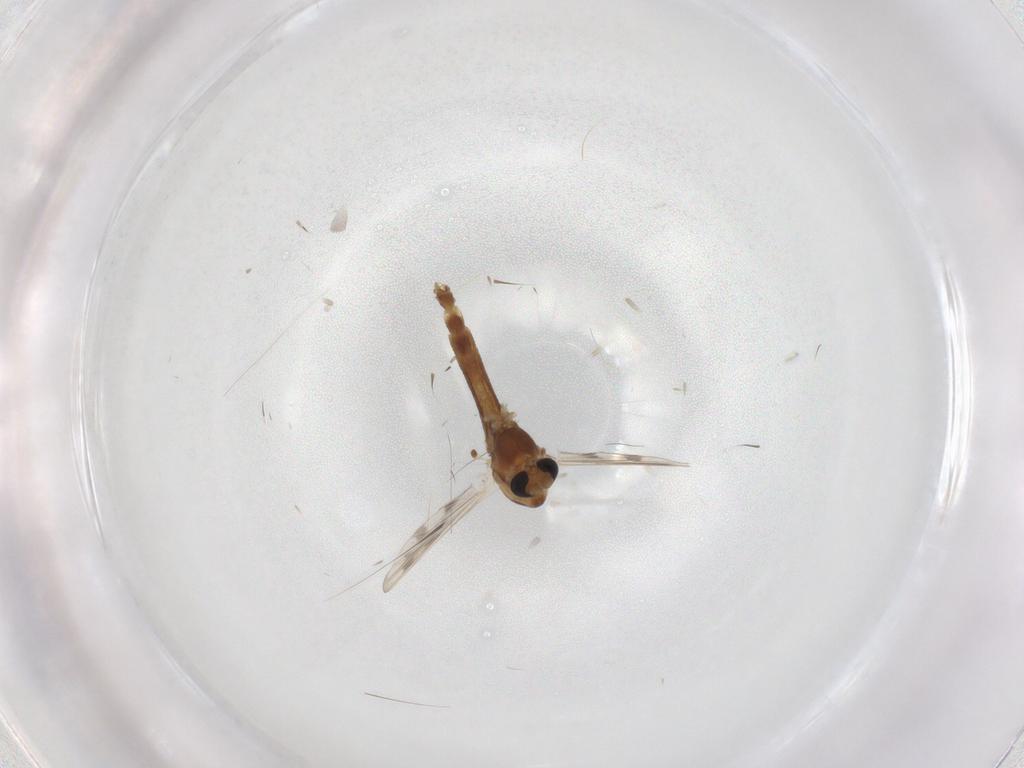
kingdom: Animalia
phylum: Arthropoda
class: Insecta
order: Diptera
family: Chironomidae
